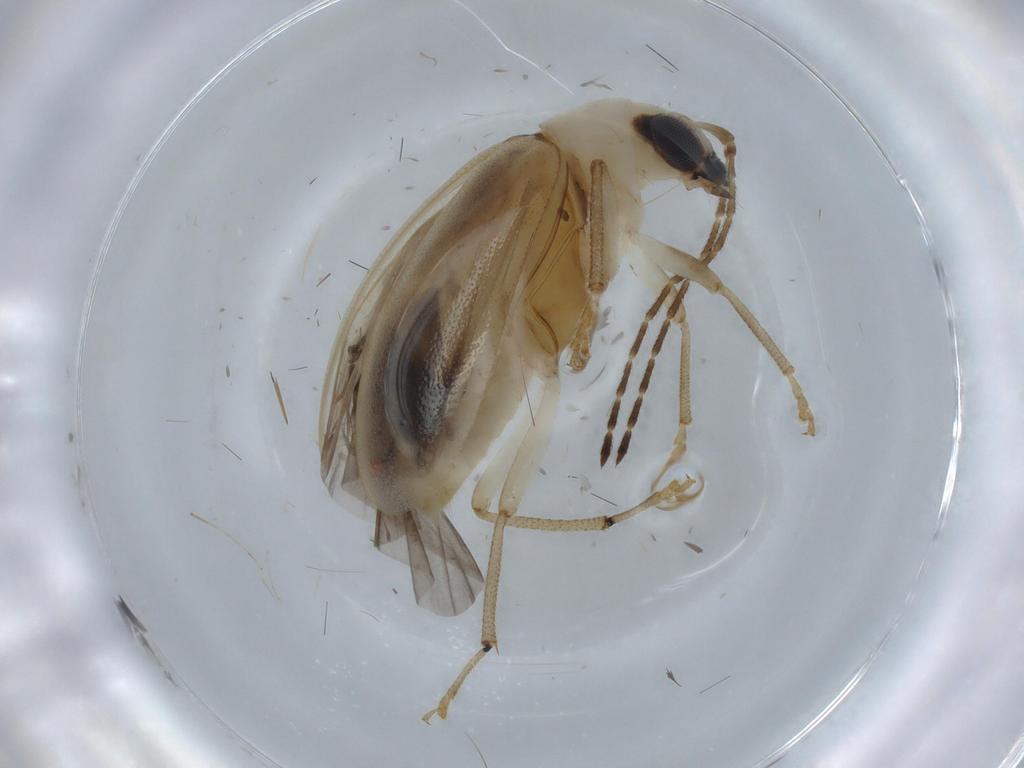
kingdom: Animalia
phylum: Arthropoda
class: Insecta
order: Coleoptera
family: Chrysomelidae
